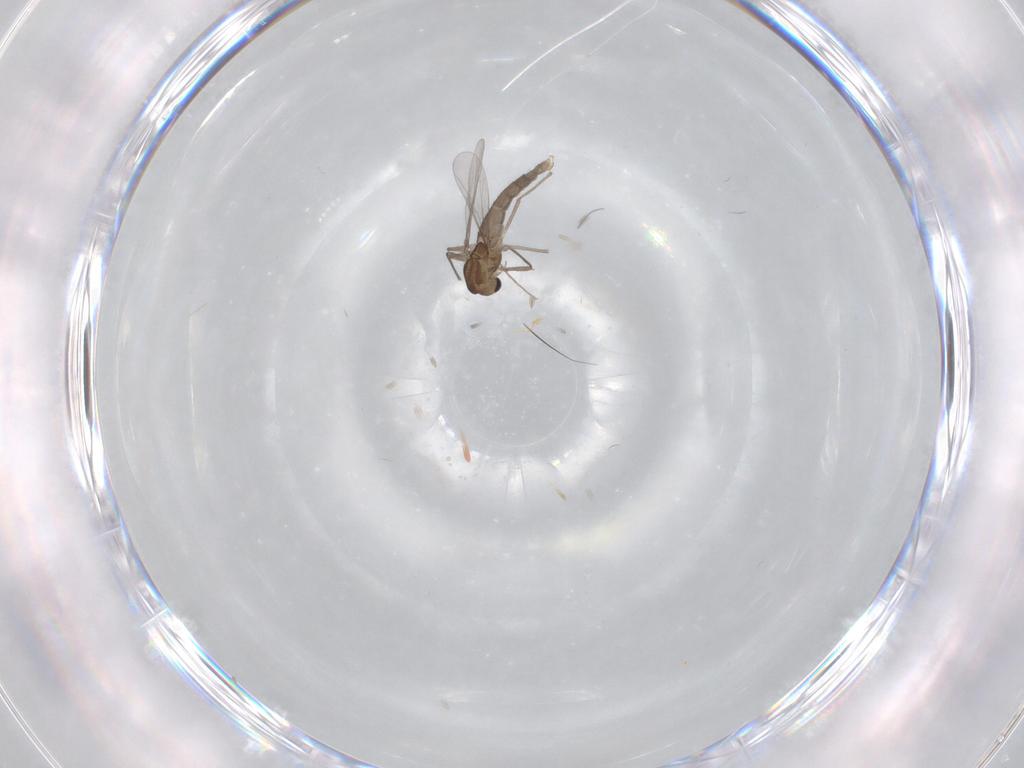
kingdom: Animalia
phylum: Arthropoda
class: Insecta
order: Diptera
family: Chironomidae
